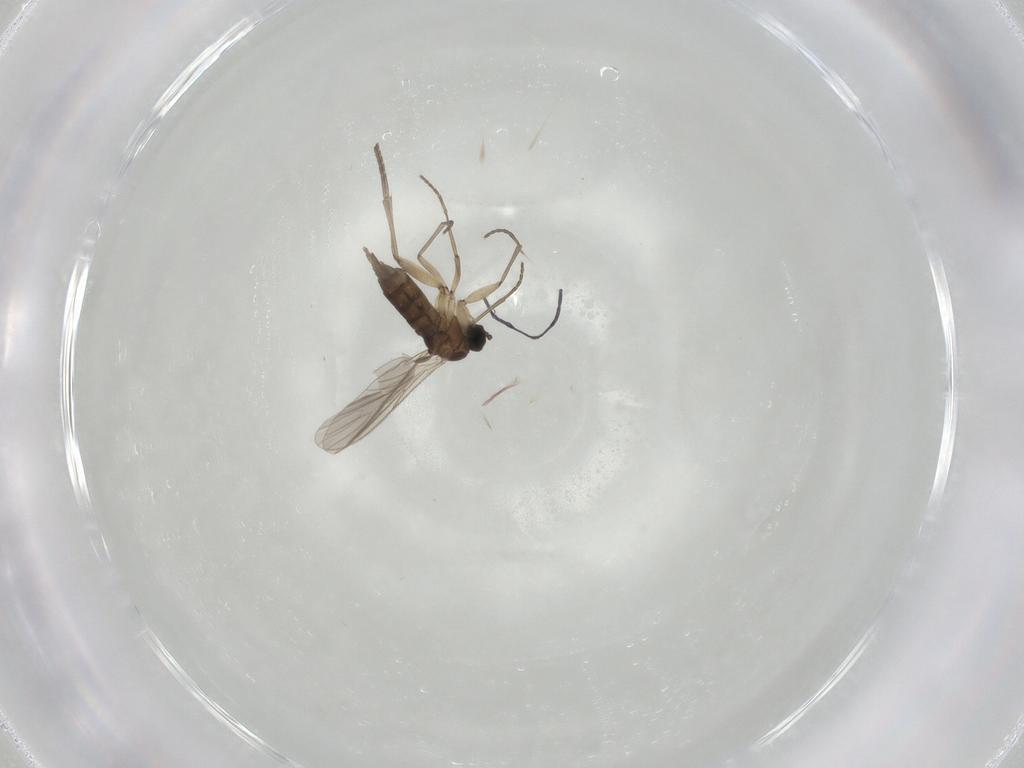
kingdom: Animalia
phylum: Arthropoda
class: Insecta
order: Diptera
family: Sciaridae
